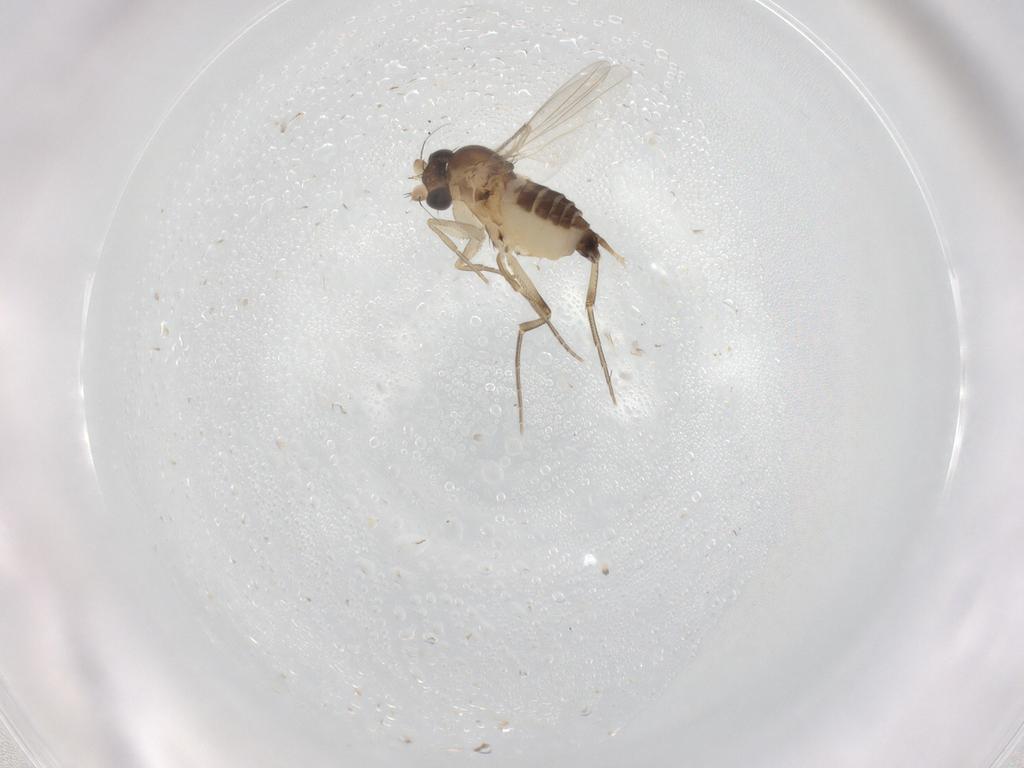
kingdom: Animalia
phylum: Arthropoda
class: Insecta
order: Diptera
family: Phoridae
